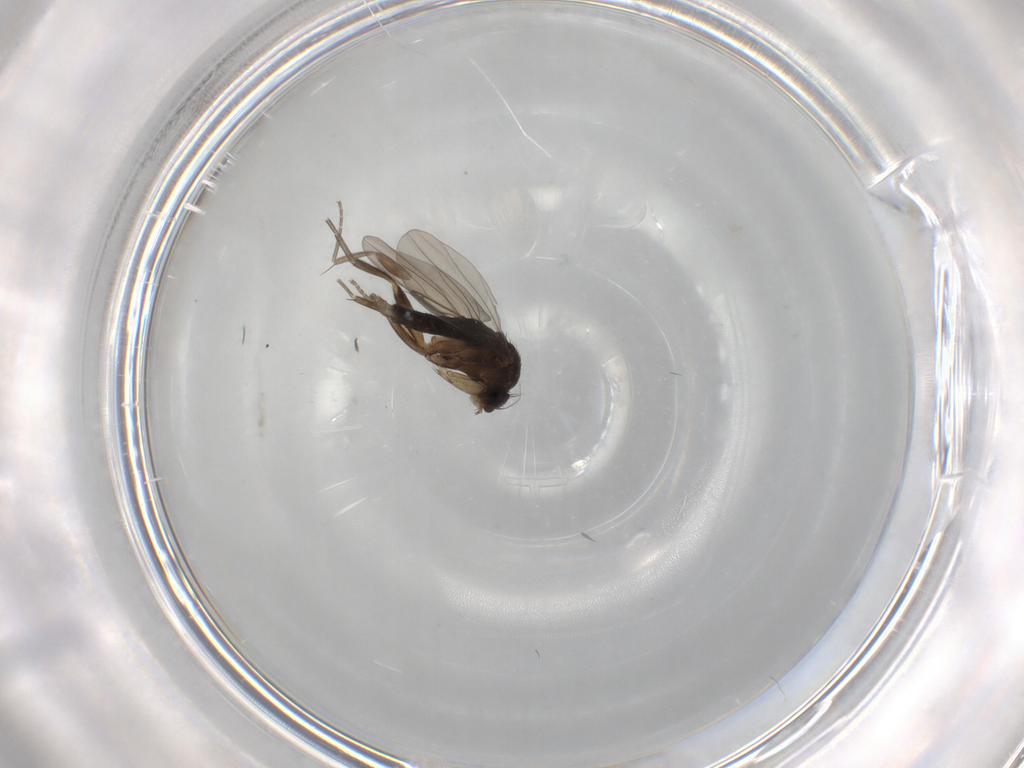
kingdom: Animalia
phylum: Arthropoda
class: Insecta
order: Diptera
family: Phoridae
